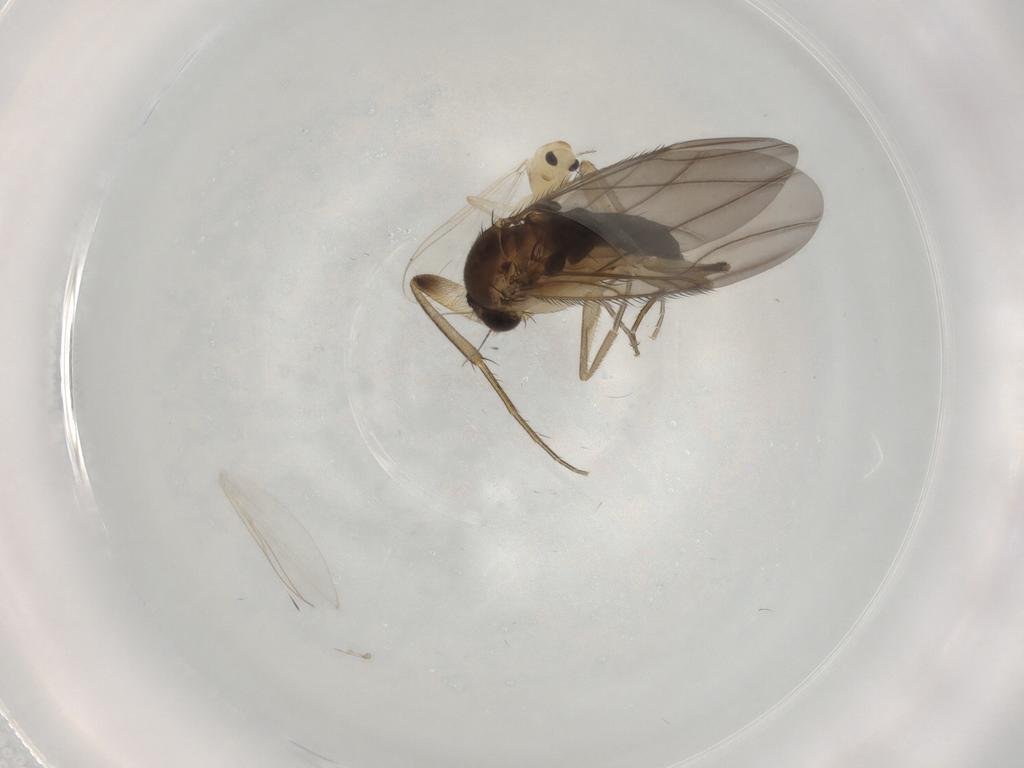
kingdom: Animalia
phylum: Arthropoda
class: Insecta
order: Diptera
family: Phoridae
